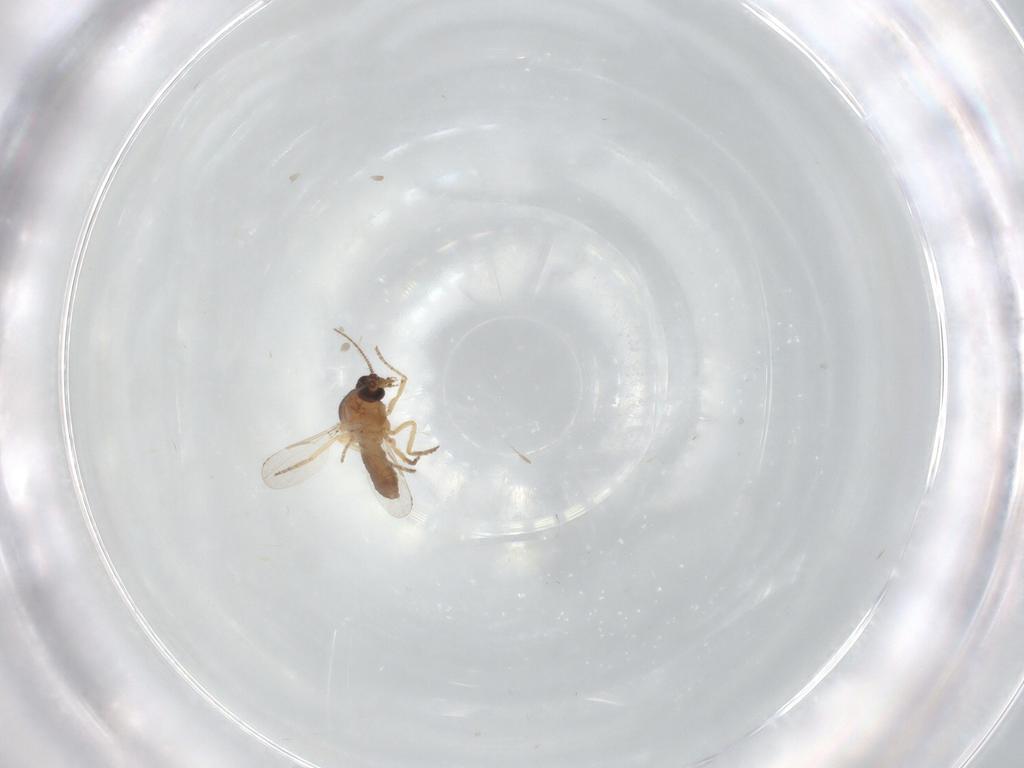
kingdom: Animalia
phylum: Arthropoda
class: Insecta
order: Diptera
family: Ceratopogonidae
